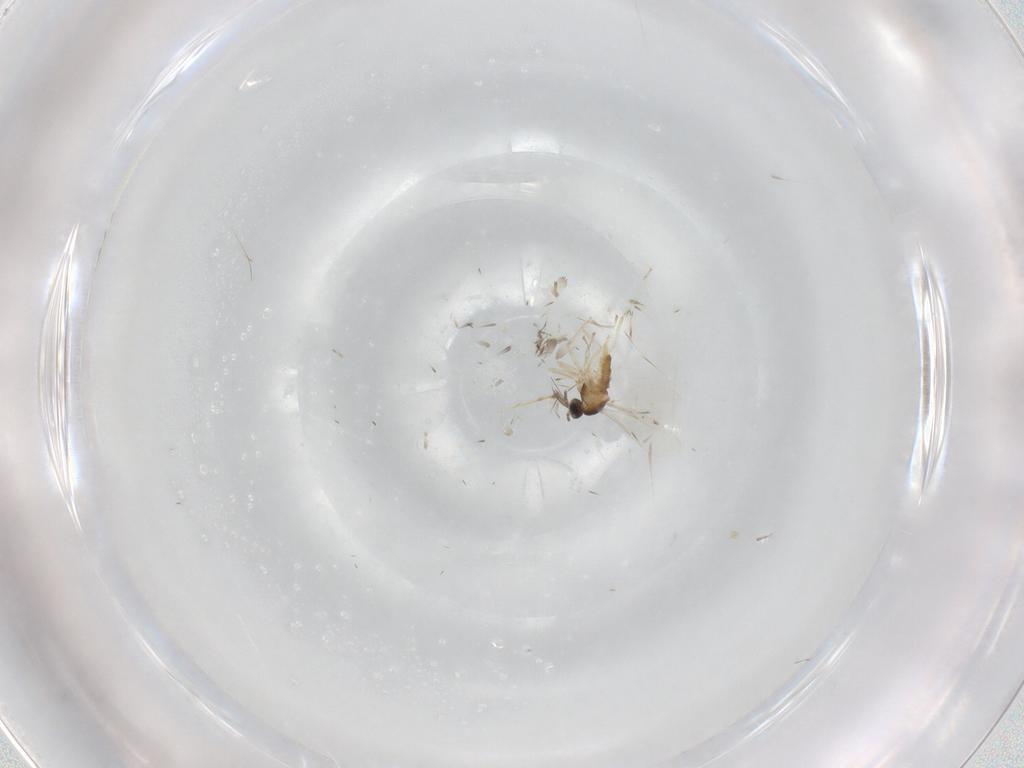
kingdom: Animalia
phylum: Arthropoda
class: Insecta
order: Diptera
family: Cecidomyiidae
